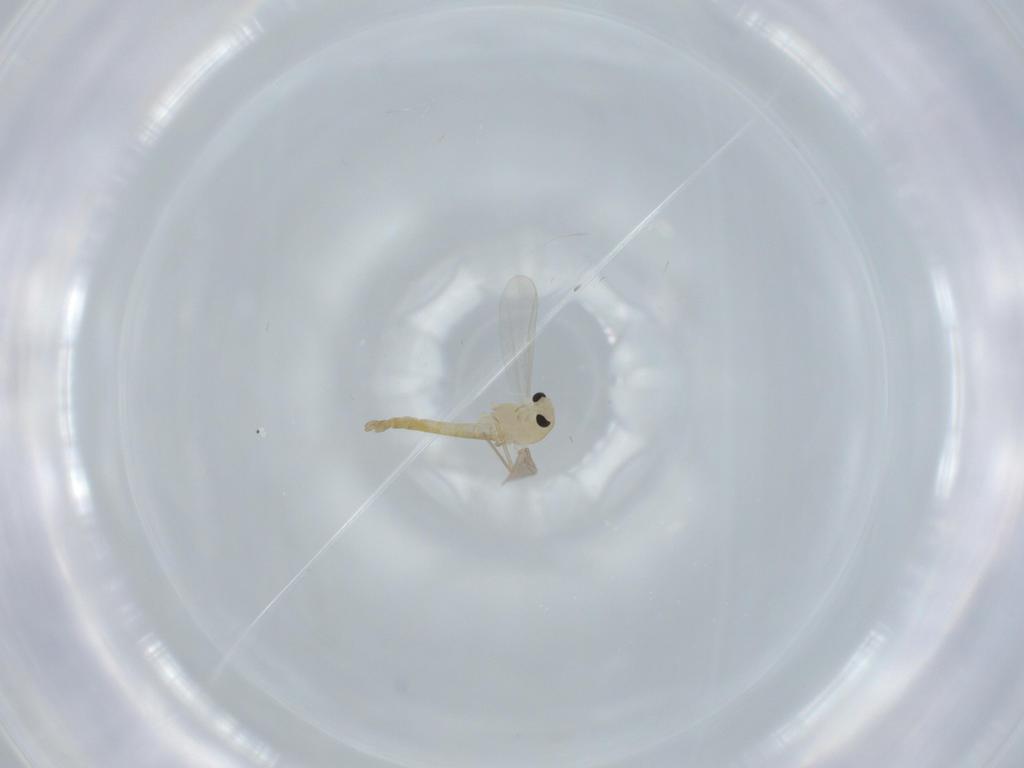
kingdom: Animalia
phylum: Arthropoda
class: Insecta
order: Diptera
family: Chironomidae
